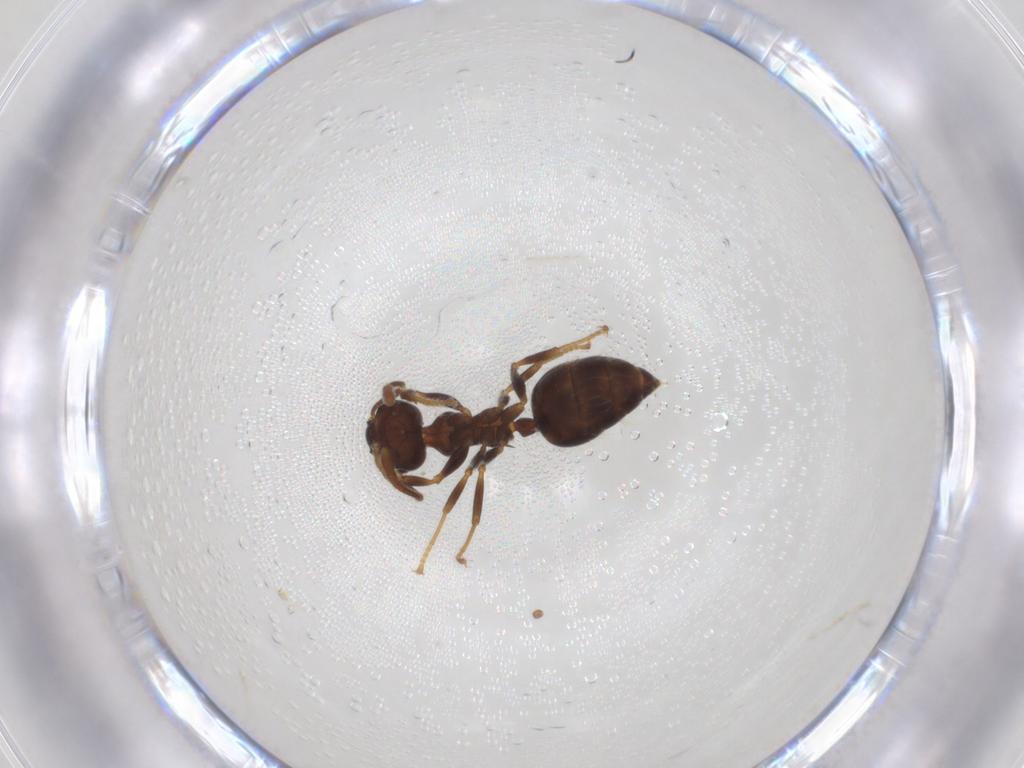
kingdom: Animalia
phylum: Arthropoda
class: Insecta
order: Hymenoptera
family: Formicidae
